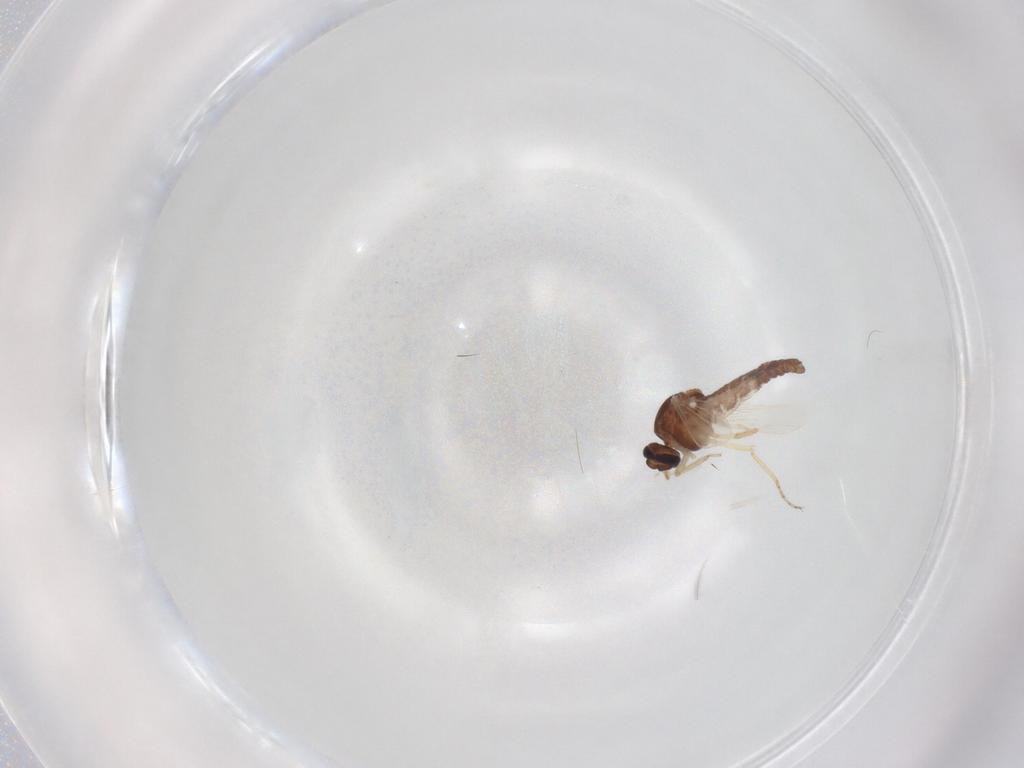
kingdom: Animalia
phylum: Arthropoda
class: Insecta
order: Diptera
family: Ceratopogonidae
